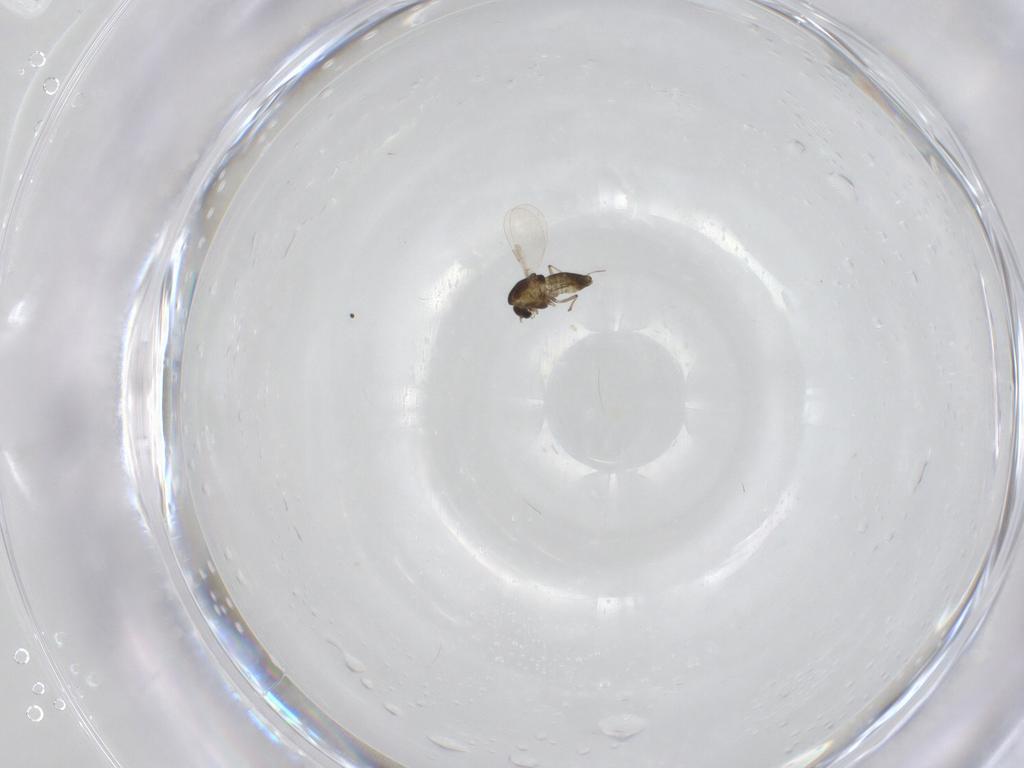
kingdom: Animalia
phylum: Arthropoda
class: Insecta
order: Diptera
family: Chironomidae
